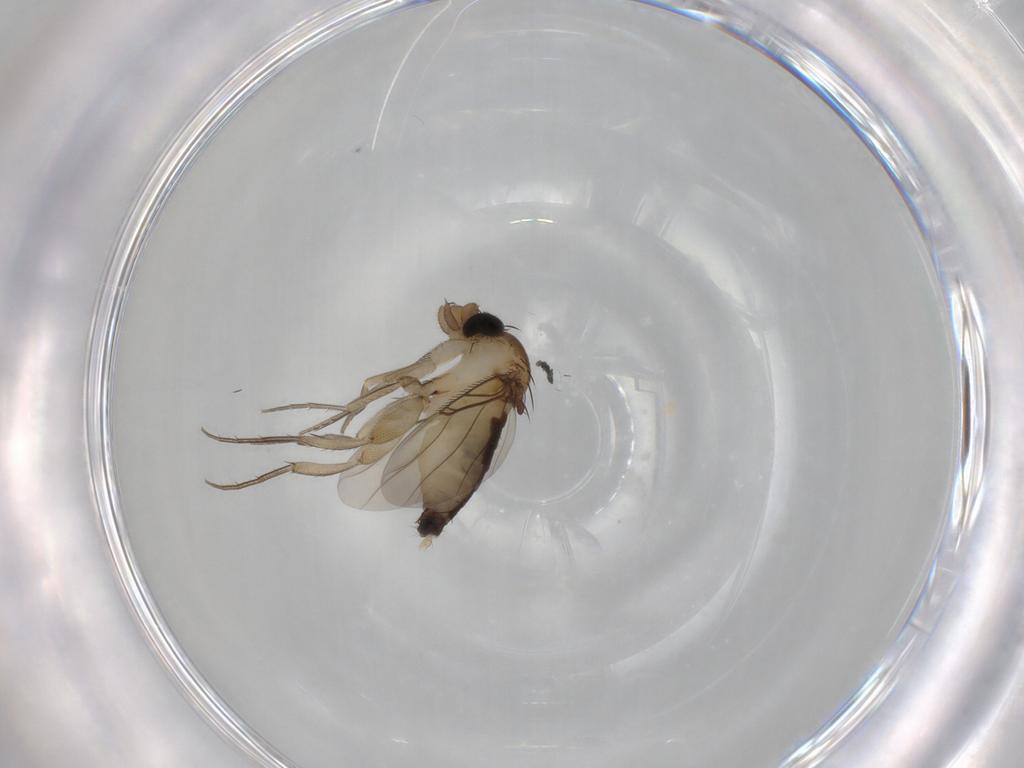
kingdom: Animalia
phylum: Arthropoda
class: Insecta
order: Diptera
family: Phoridae
